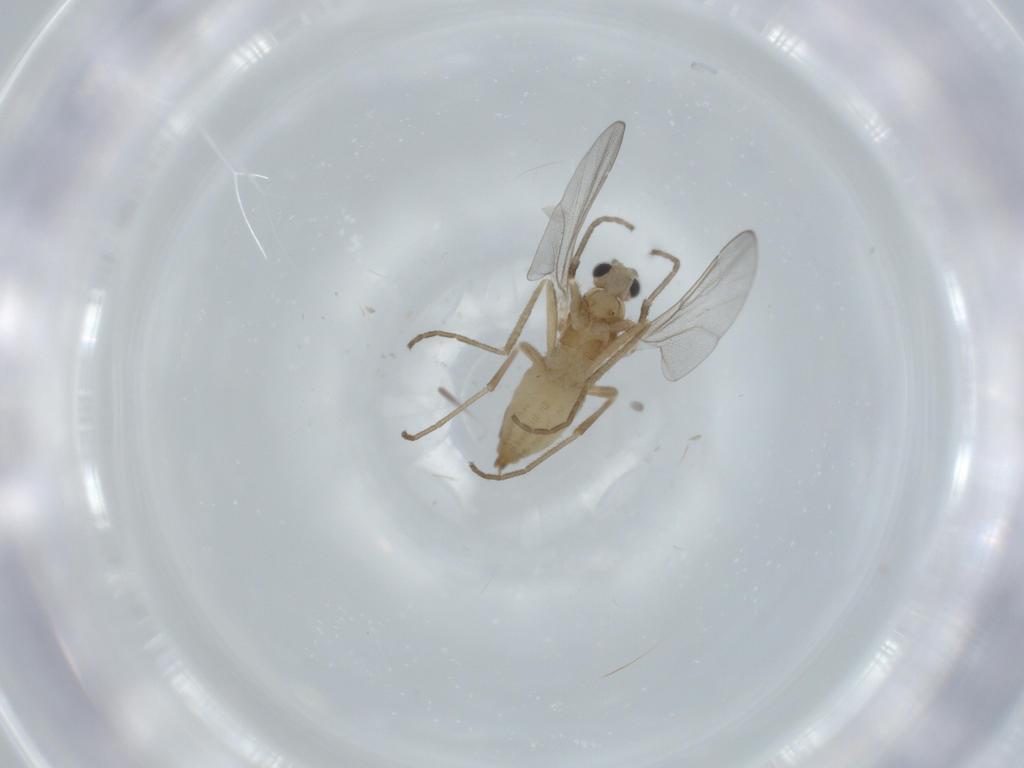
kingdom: Animalia
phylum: Arthropoda
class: Insecta
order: Diptera
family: Cecidomyiidae
